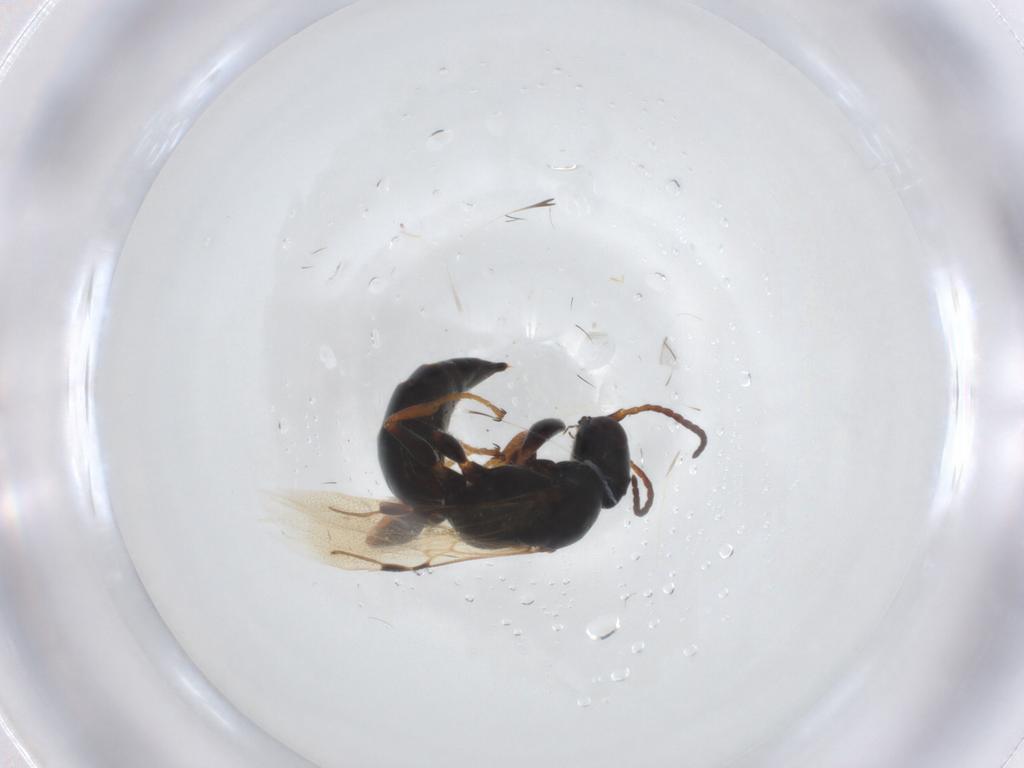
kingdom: Animalia
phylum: Arthropoda
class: Insecta
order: Hymenoptera
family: Bethylidae
